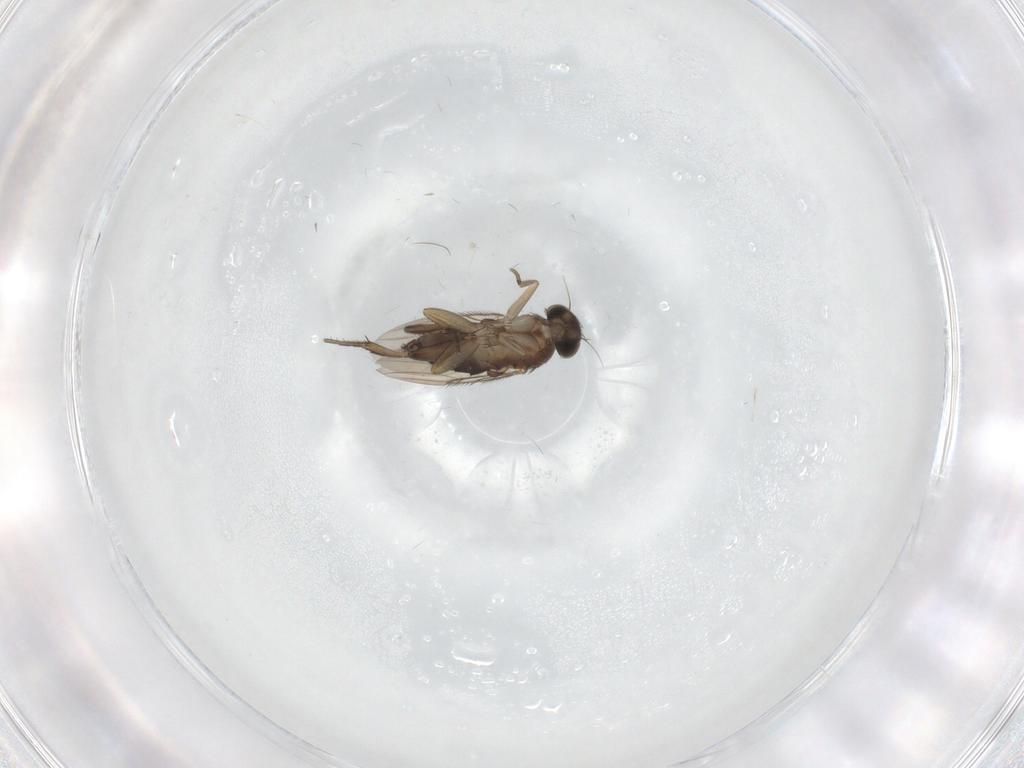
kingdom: Animalia
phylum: Arthropoda
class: Insecta
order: Diptera
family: Phoridae
